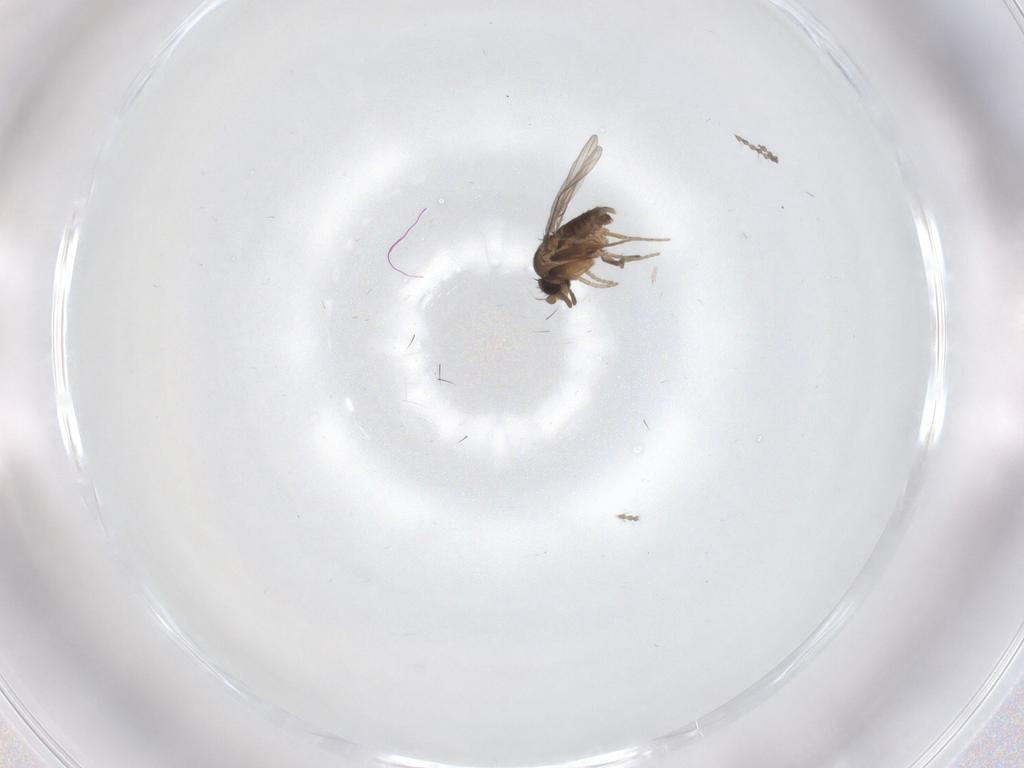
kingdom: Animalia
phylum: Arthropoda
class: Insecta
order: Diptera
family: Cecidomyiidae
